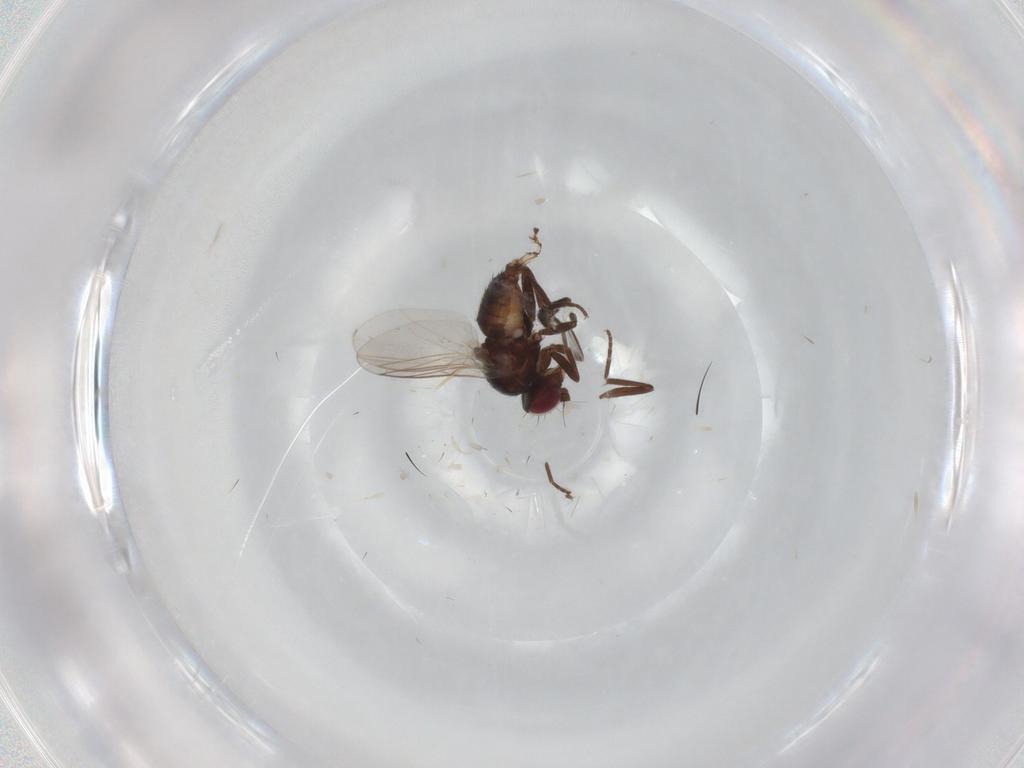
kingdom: Animalia
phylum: Arthropoda
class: Insecta
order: Diptera
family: Dolichopodidae
